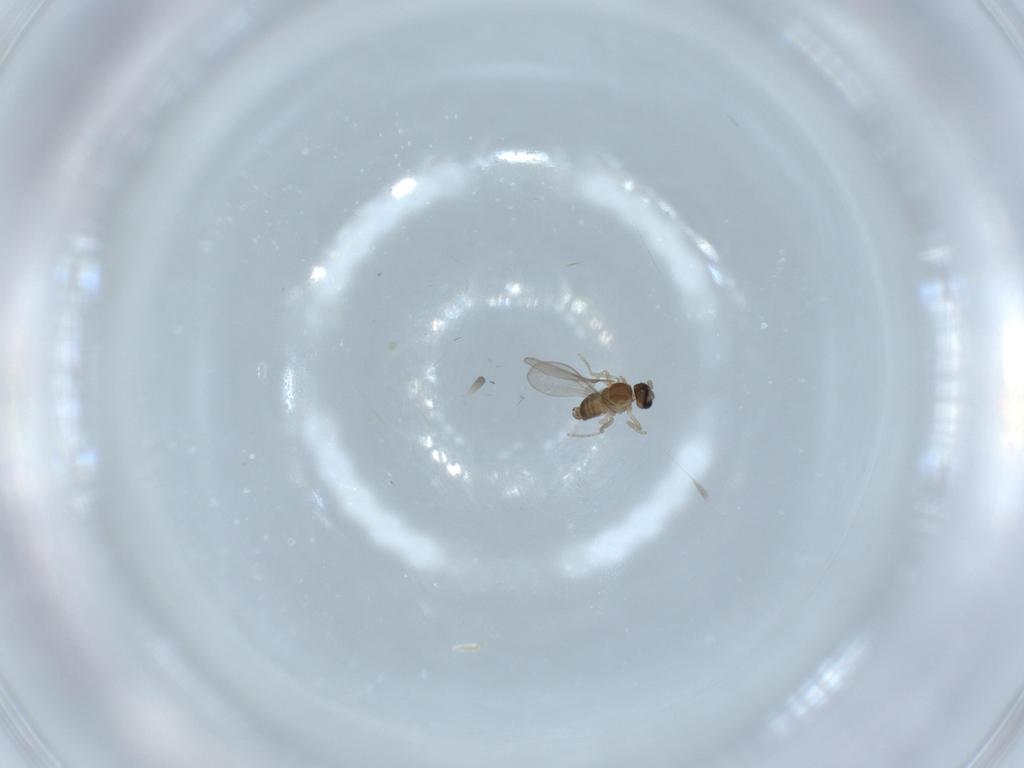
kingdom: Animalia
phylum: Arthropoda
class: Insecta
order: Diptera
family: Cecidomyiidae
